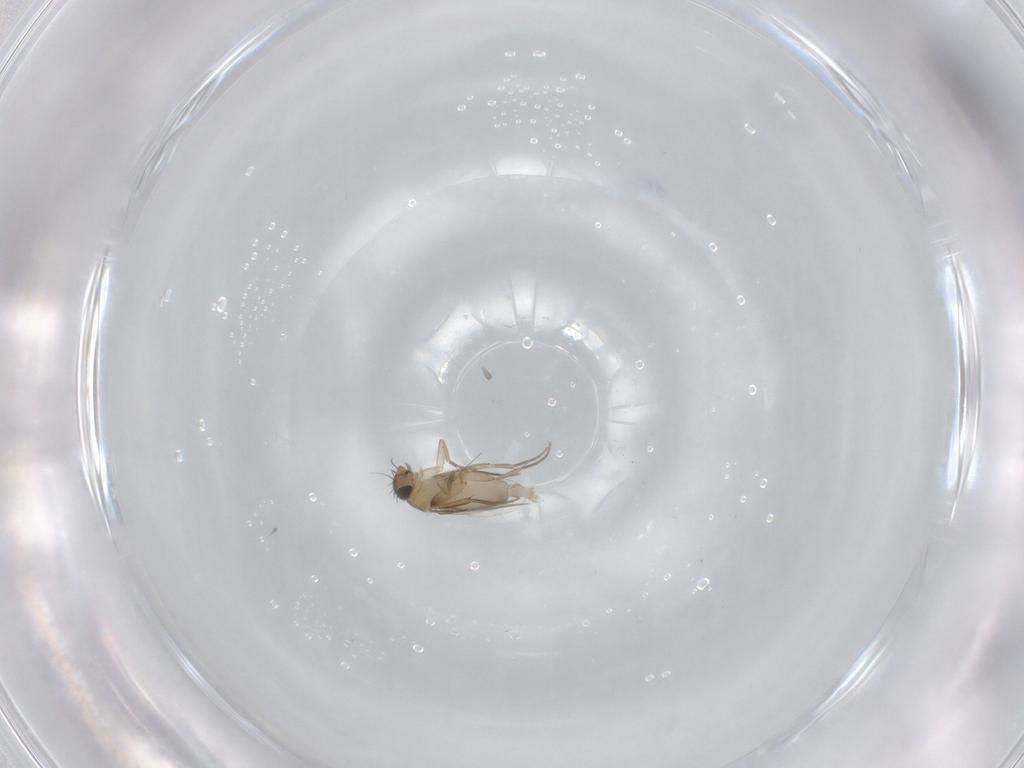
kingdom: Animalia
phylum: Arthropoda
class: Insecta
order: Diptera
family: Phoridae
